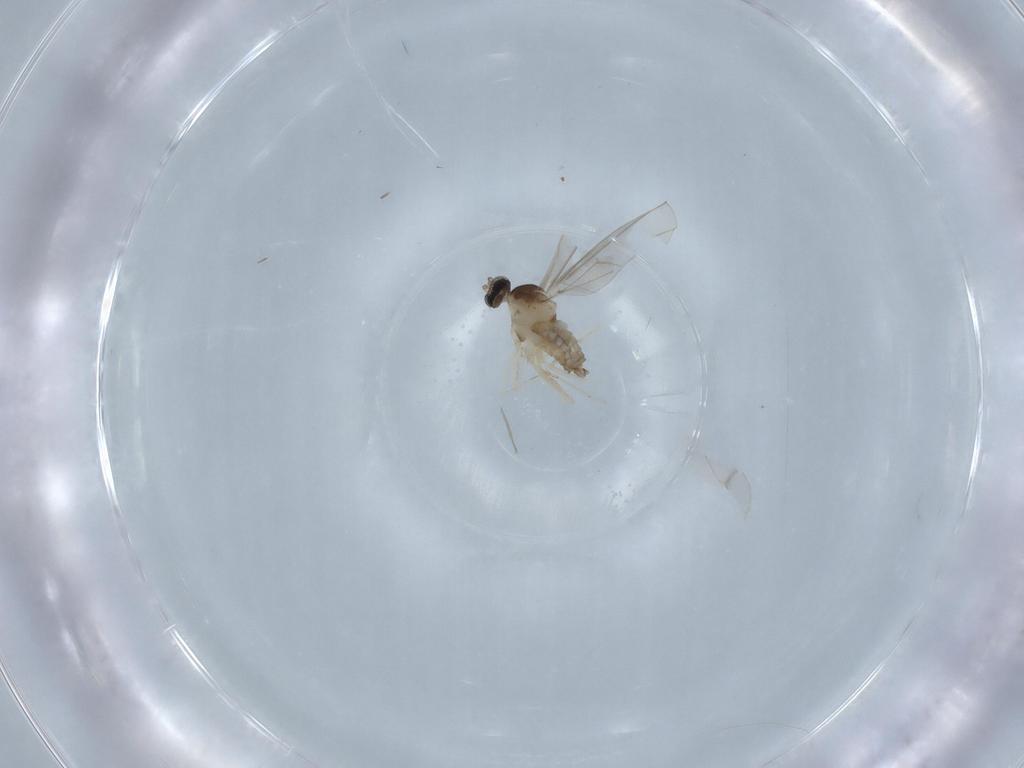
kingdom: Animalia
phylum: Arthropoda
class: Insecta
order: Diptera
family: Cecidomyiidae
